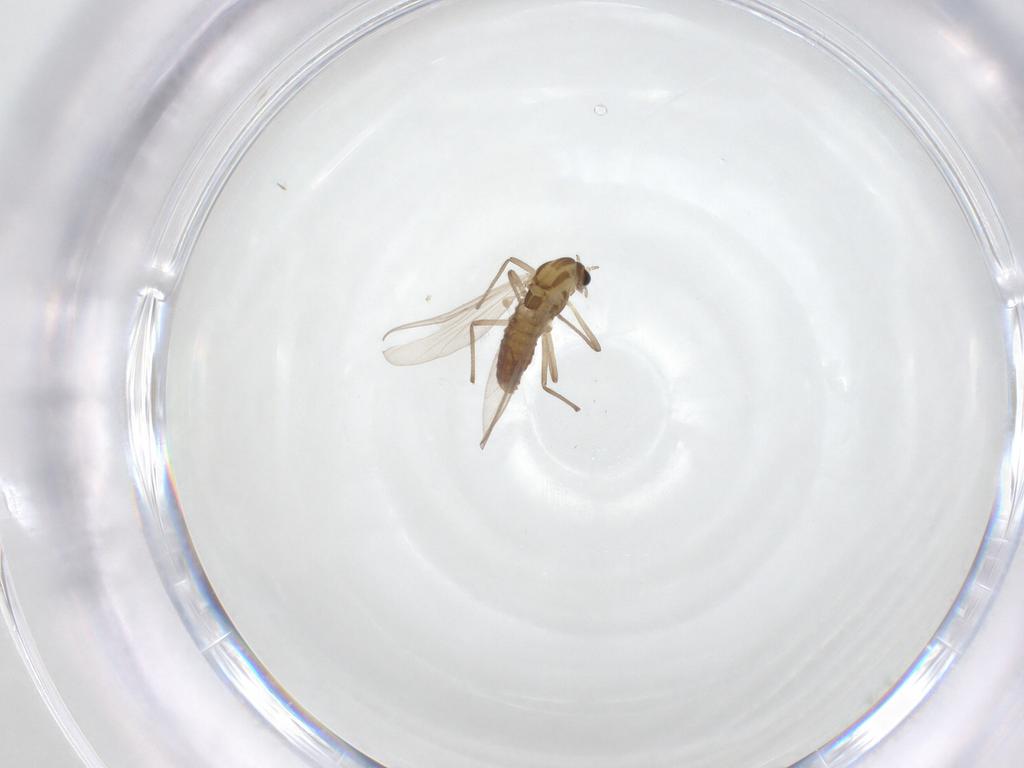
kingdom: Animalia
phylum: Arthropoda
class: Insecta
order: Diptera
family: Chironomidae
